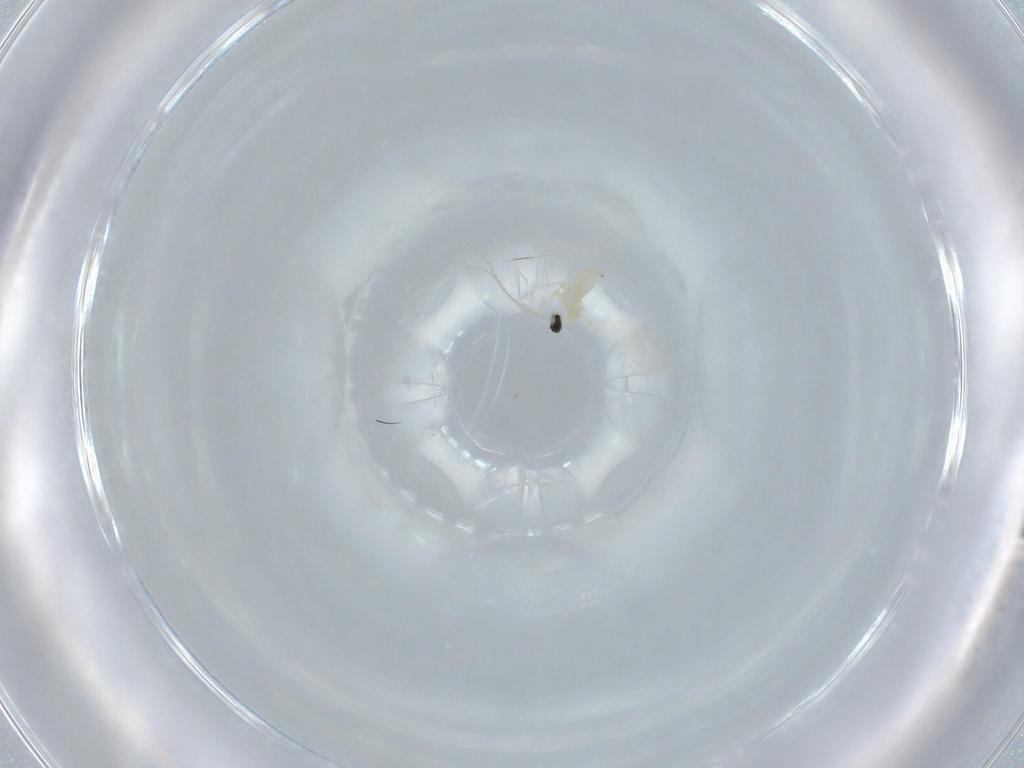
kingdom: Animalia
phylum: Arthropoda
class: Insecta
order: Diptera
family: Cecidomyiidae
